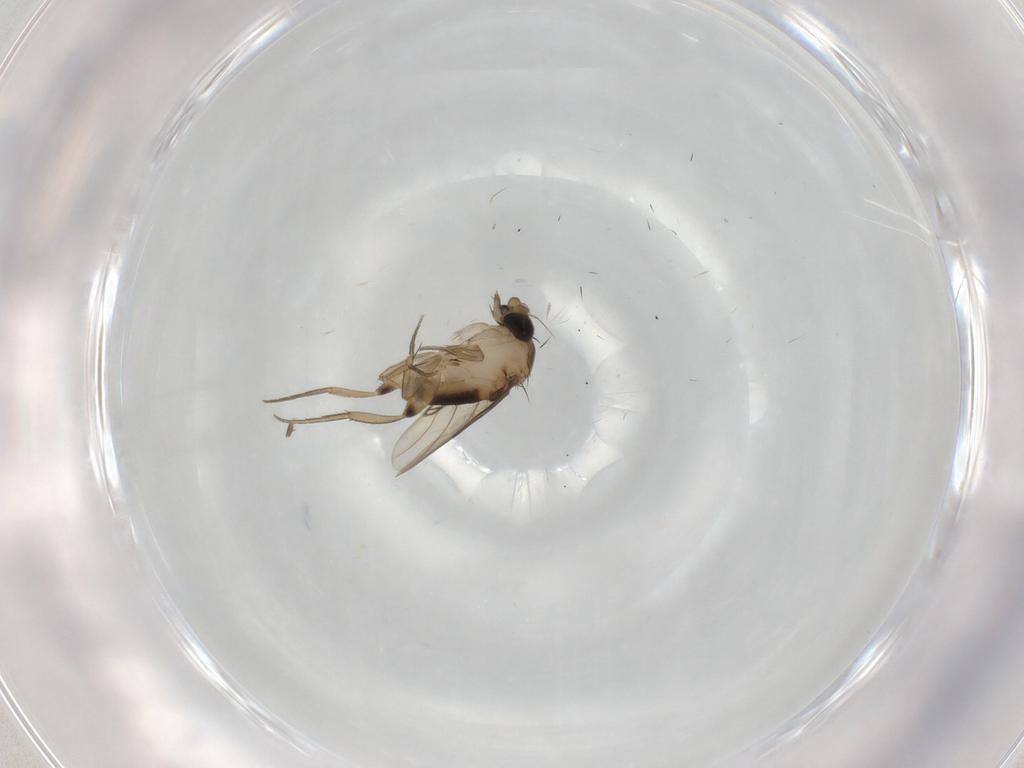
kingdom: Animalia
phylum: Arthropoda
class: Insecta
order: Diptera
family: Phoridae
